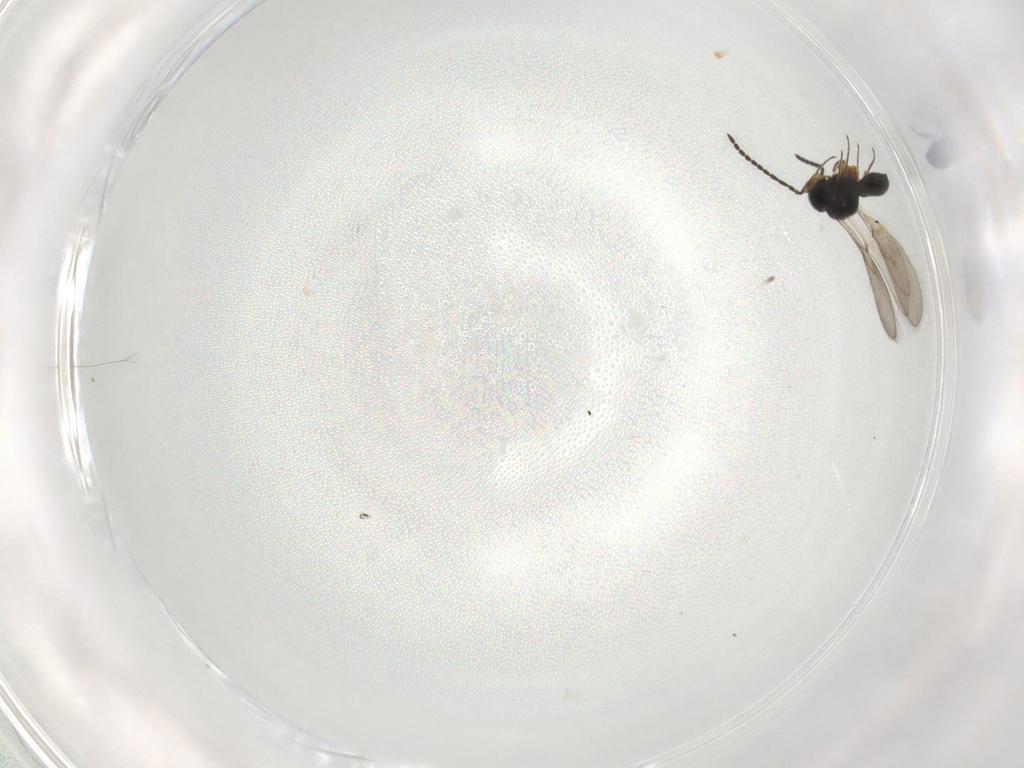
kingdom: Animalia
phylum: Arthropoda
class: Insecta
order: Hymenoptera
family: Scelionidae
